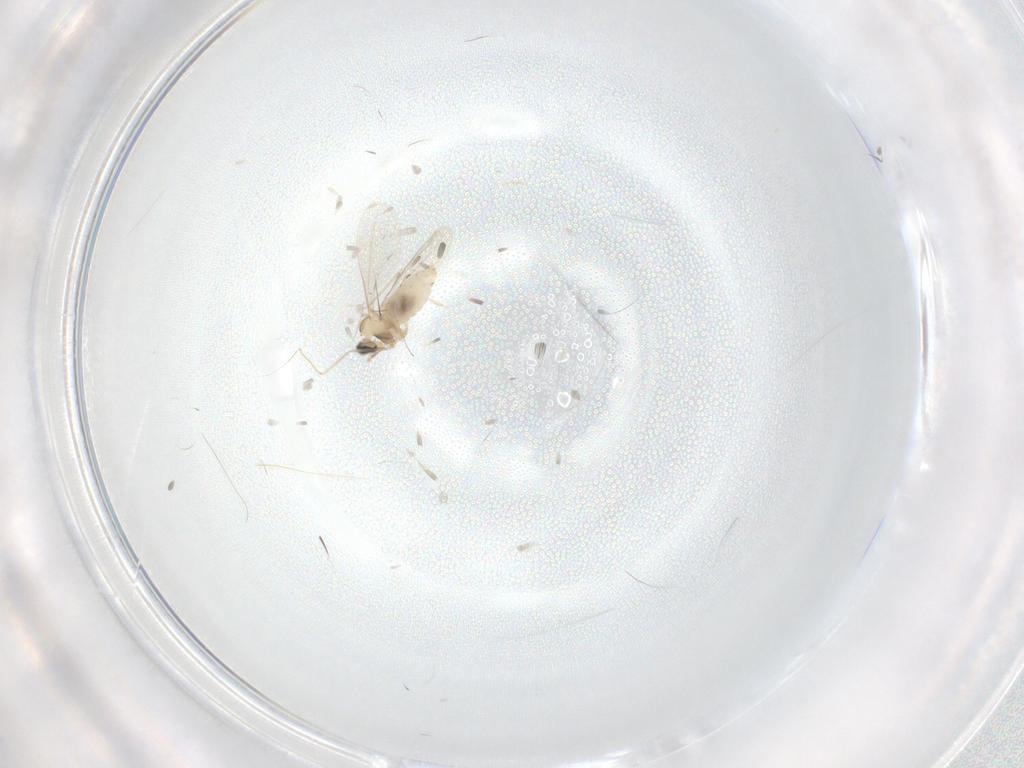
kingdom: Animalia
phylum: Arthropoda
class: Insecta
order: Diptera
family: Cecidomyiidae
